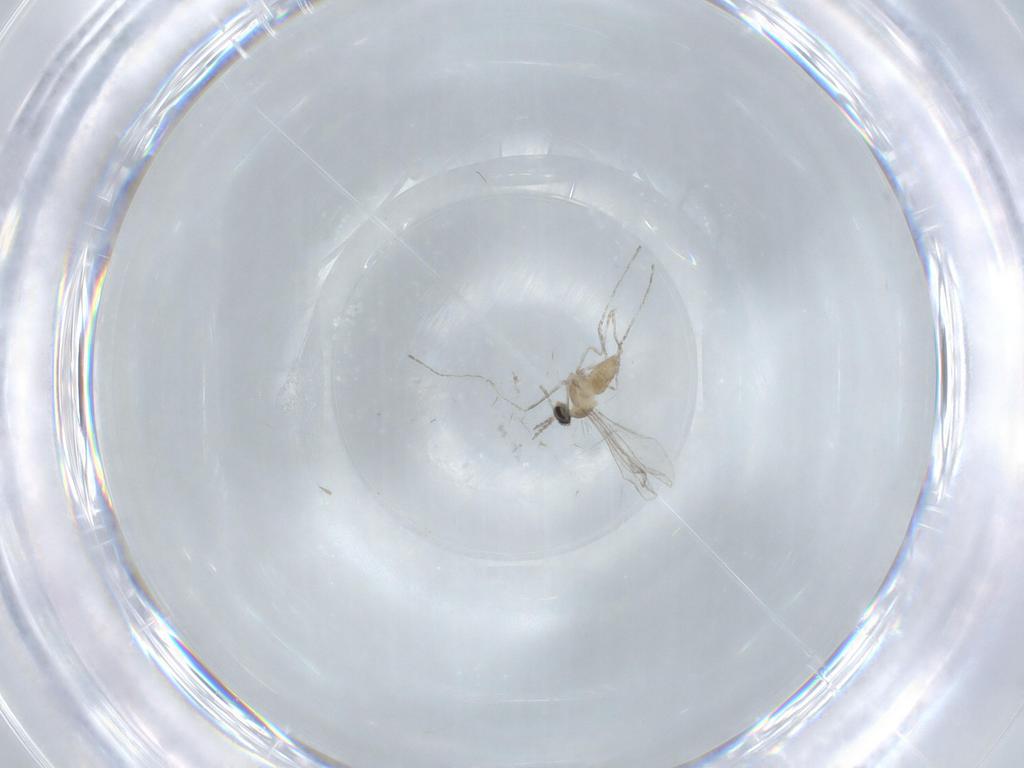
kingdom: Animalia
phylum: Arthropoda
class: Insecta
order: Diptera
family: Cecidomyiidae
